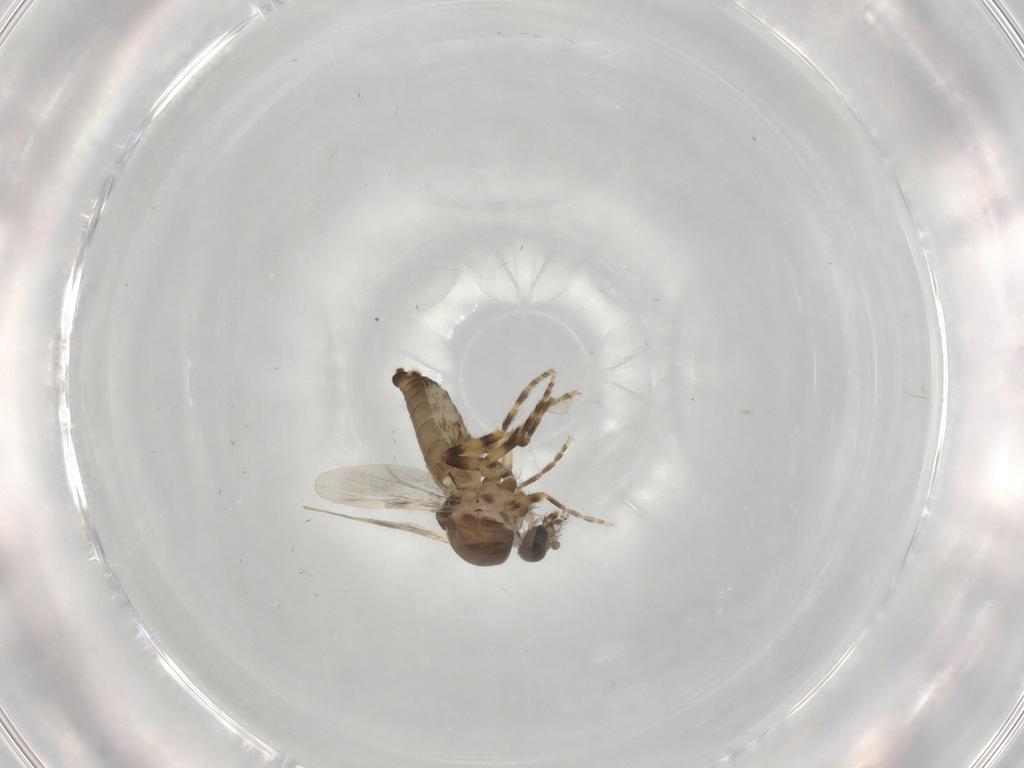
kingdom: Animalia
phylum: Arthropoda
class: Insecta
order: Diptera
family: Ceratopogonidae
